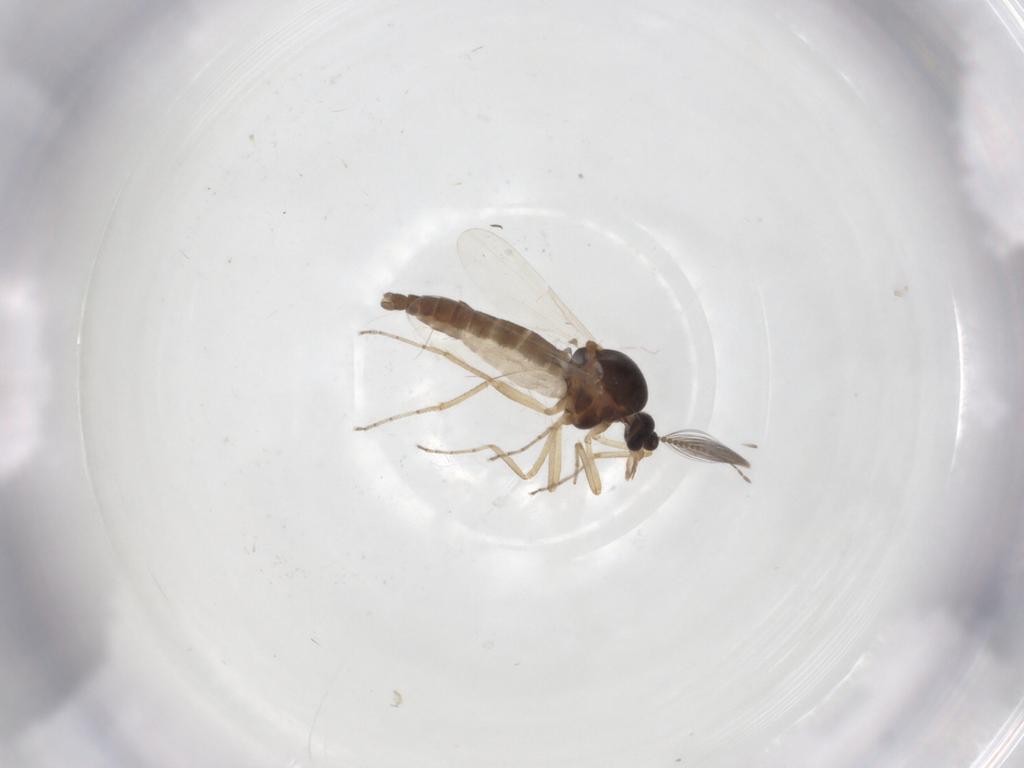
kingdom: Animalia
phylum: Arthropoda
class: Insecta
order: Diptera
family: Ceratopogonidae
